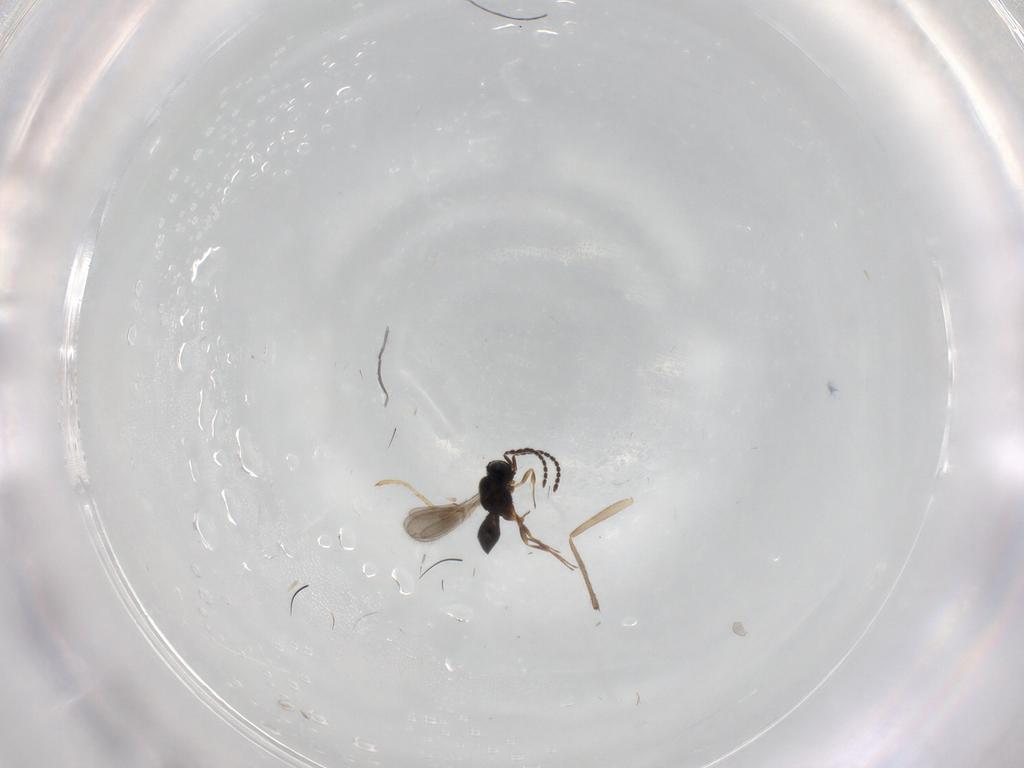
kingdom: Animalia
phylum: Arthropoda
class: Insecta
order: Hymenoptera
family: Scelionidae
